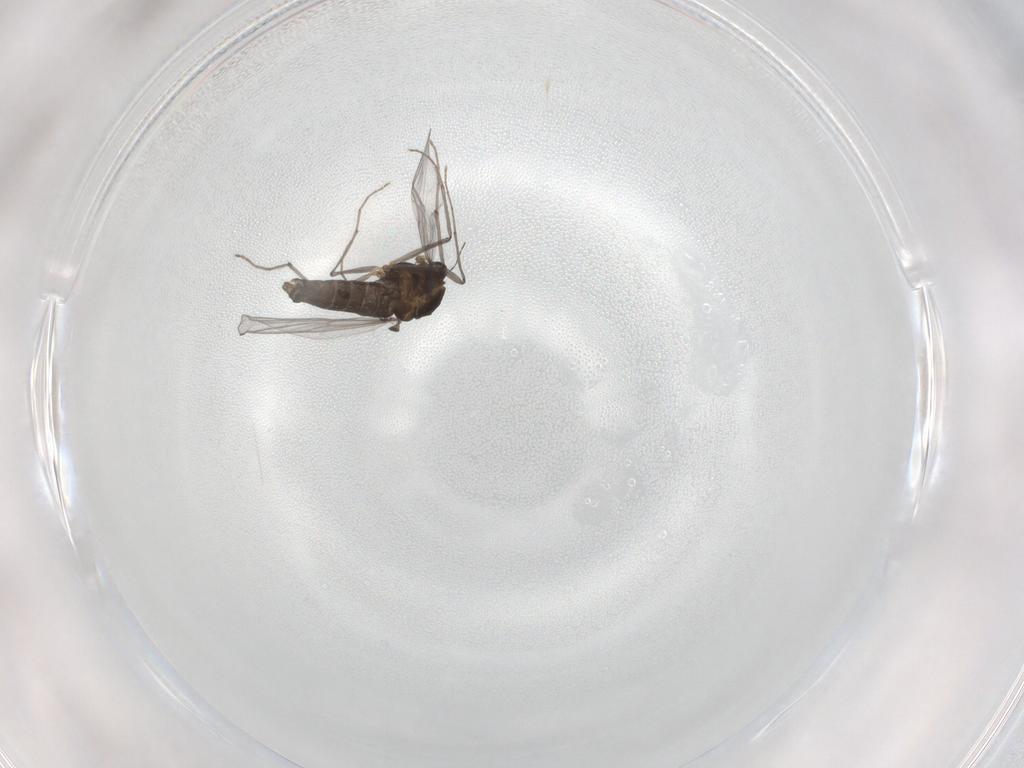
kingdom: Animalia
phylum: Arthropoda
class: Insecta
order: Diptera
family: Chironomidae
